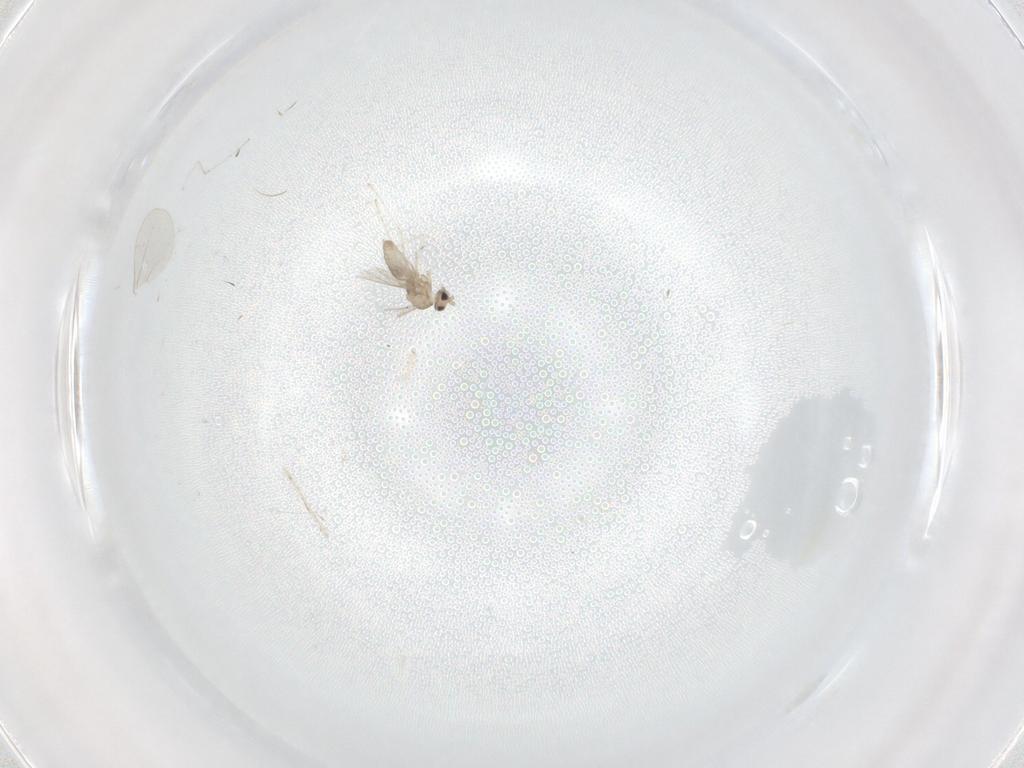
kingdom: Animalia
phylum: Arthropoda
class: Insecta
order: Diptera
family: Cecidomyiidae
